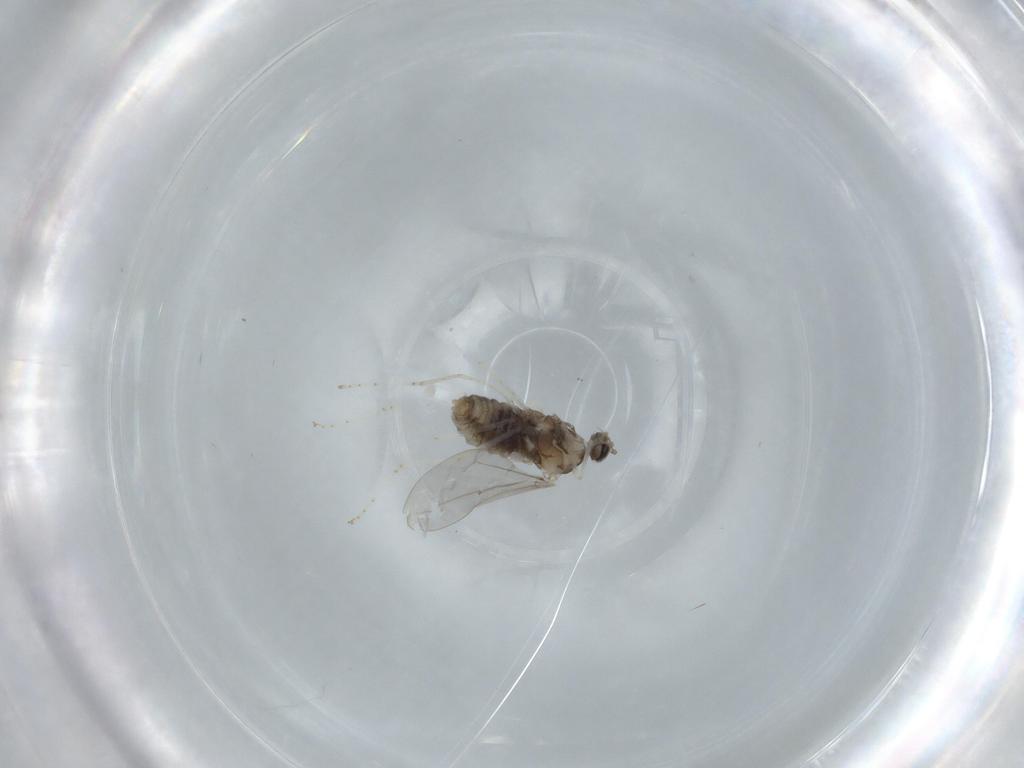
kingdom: Animalia
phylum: Arthropoda
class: Insecta
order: Diptera
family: Cecidomyiidae
